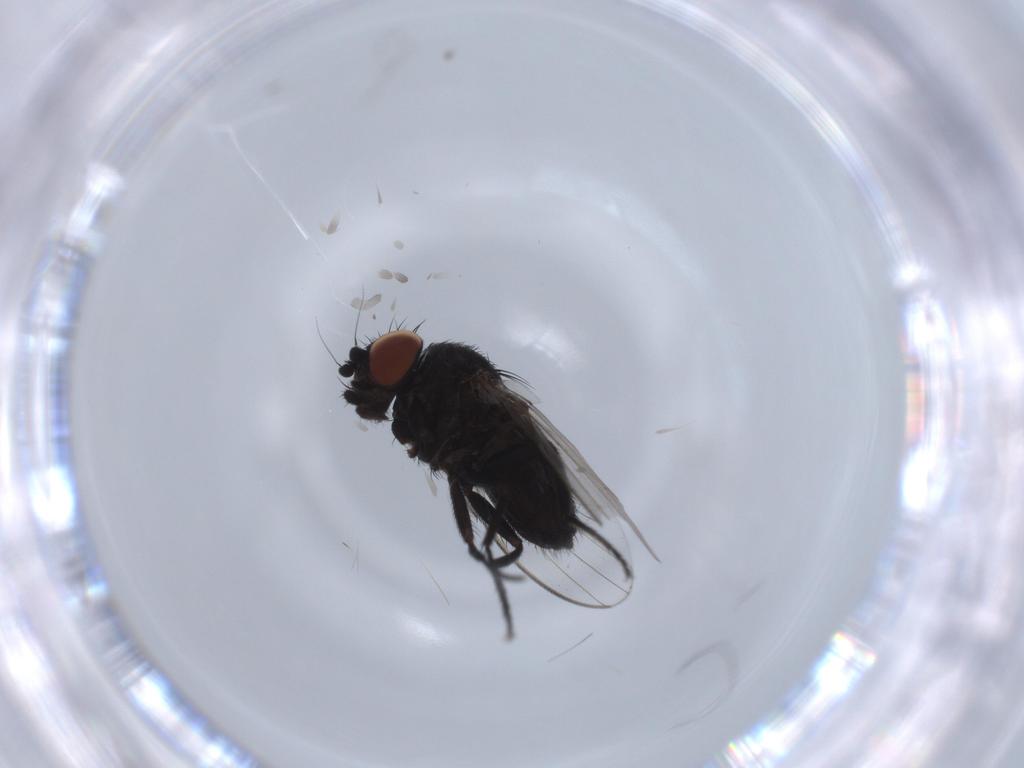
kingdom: Animalia
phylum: Arthropoda
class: Insecta
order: Diptera
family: Milichiidae
